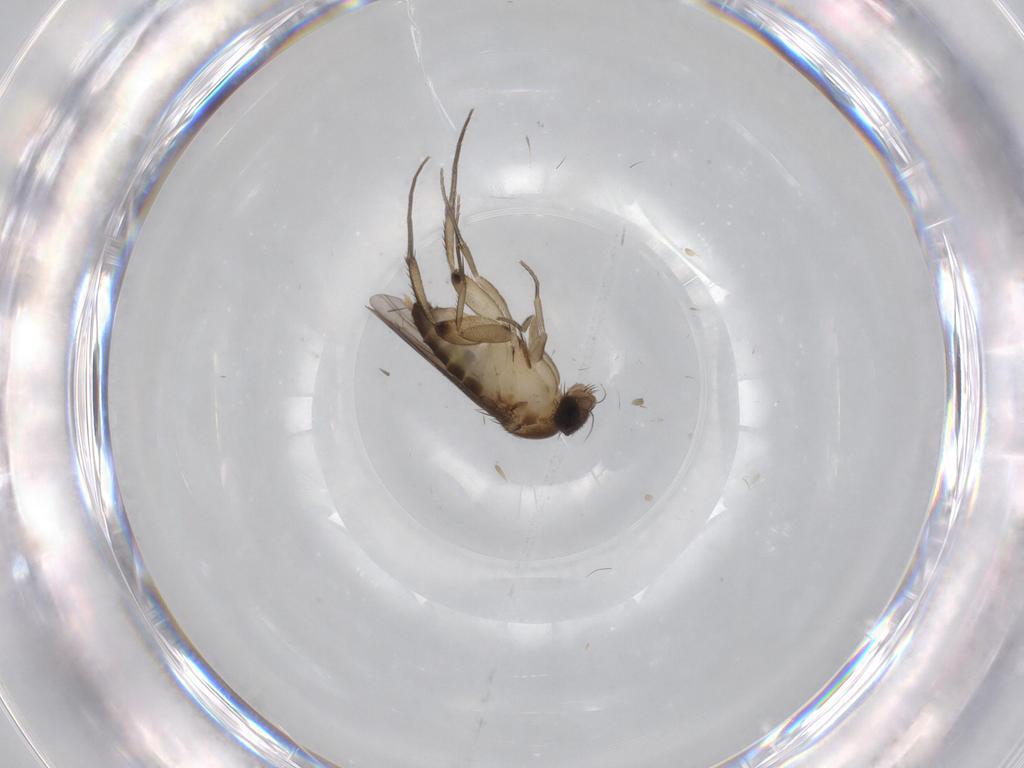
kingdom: Animalia
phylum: Arthropoda
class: Insecta
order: Diptera
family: Phoridae
